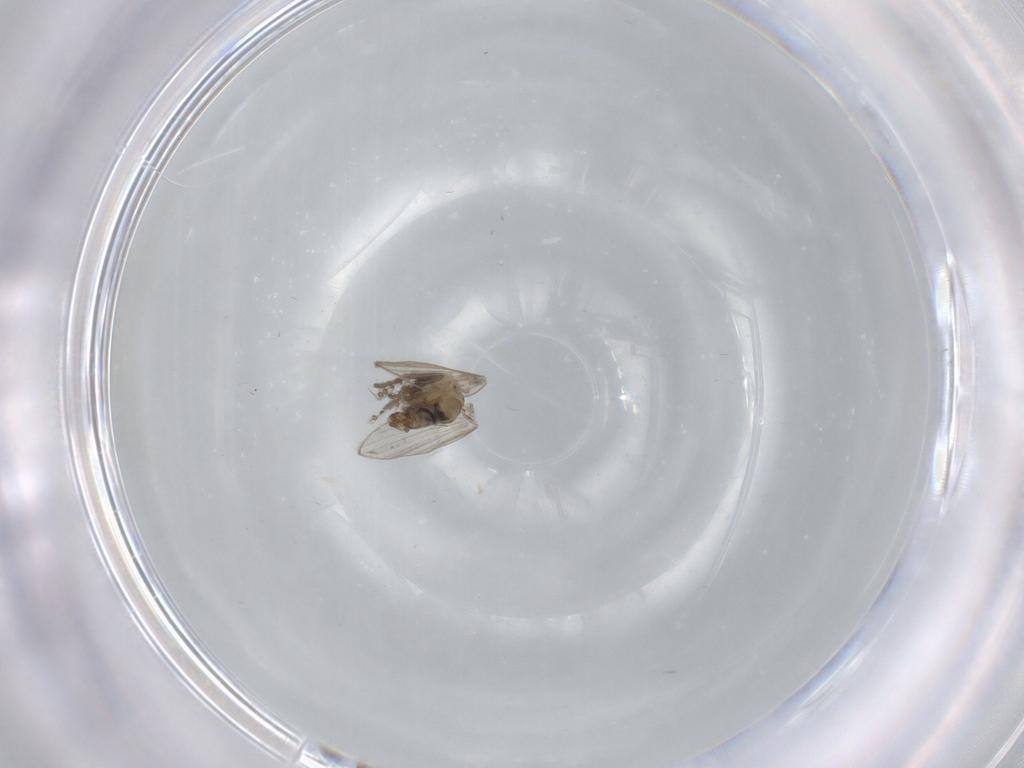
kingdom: Animalia
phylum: Arthropoda
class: Insecta
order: Diptera
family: Psychodidae
